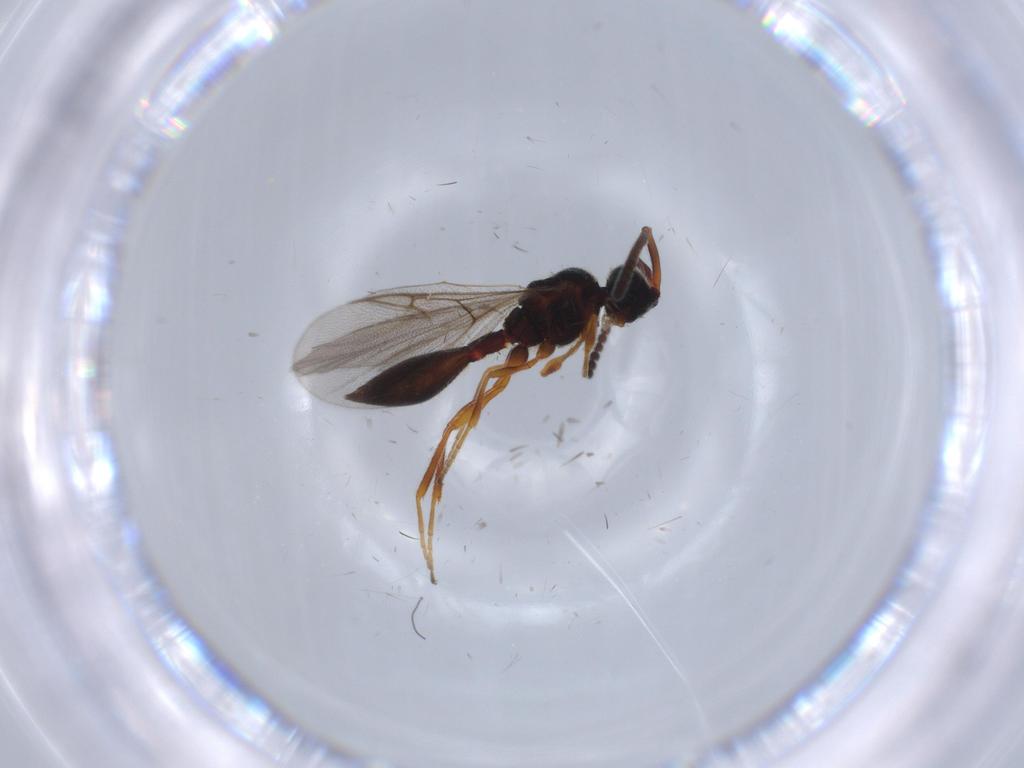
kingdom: Animalia
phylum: Arthropoda
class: Insecta
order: Hymenoptera
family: Diapriidae
